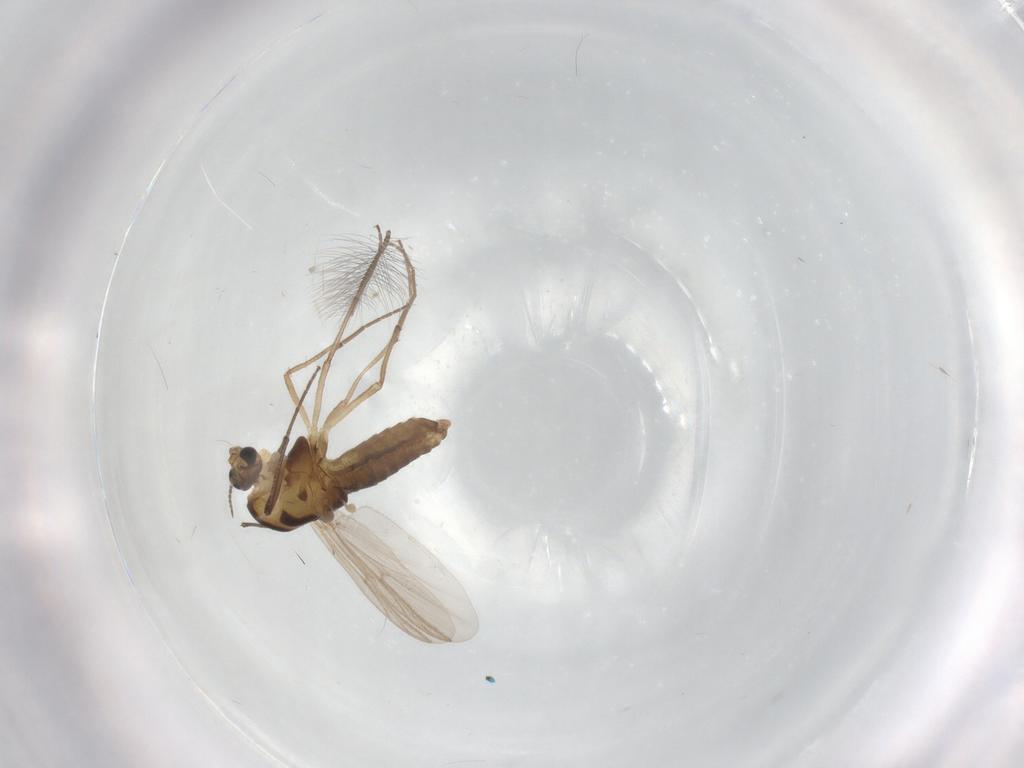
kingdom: Animalia
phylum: Arthropoda
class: Insecta
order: Diptera
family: Chironomidae
